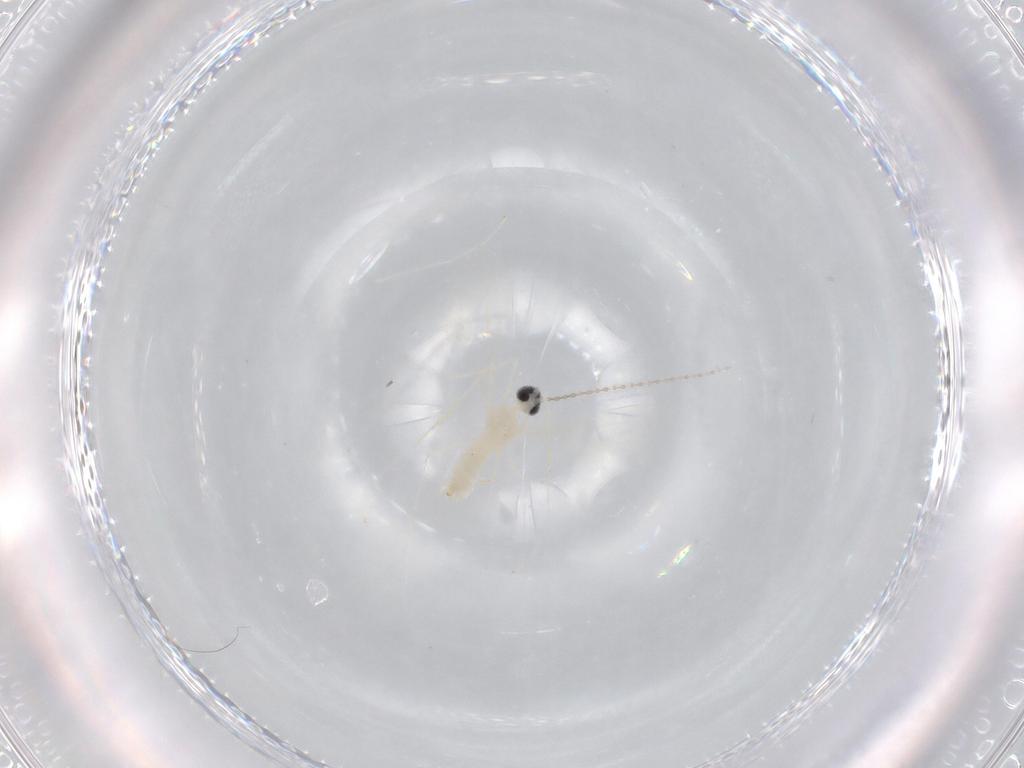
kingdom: Animalia
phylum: Arthropoda
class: Insecta
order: Diptera
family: Cecidomyiidae
